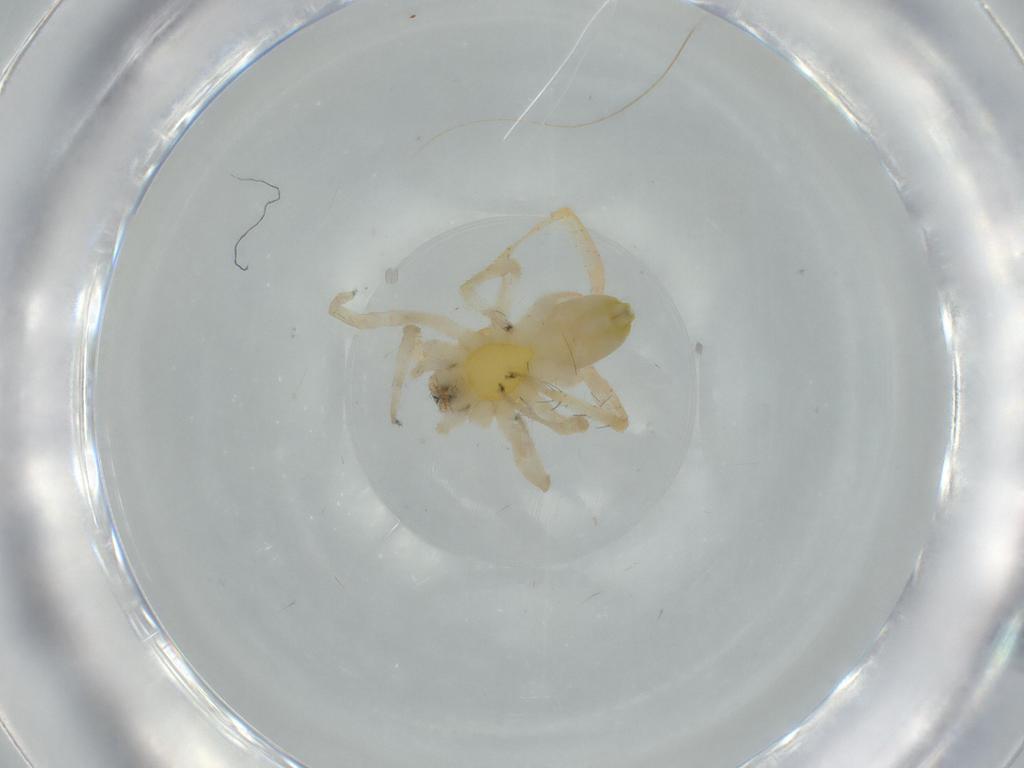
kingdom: Animalia
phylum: Arthropoda
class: Arachnida
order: Araneae
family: Anyphaenidae
